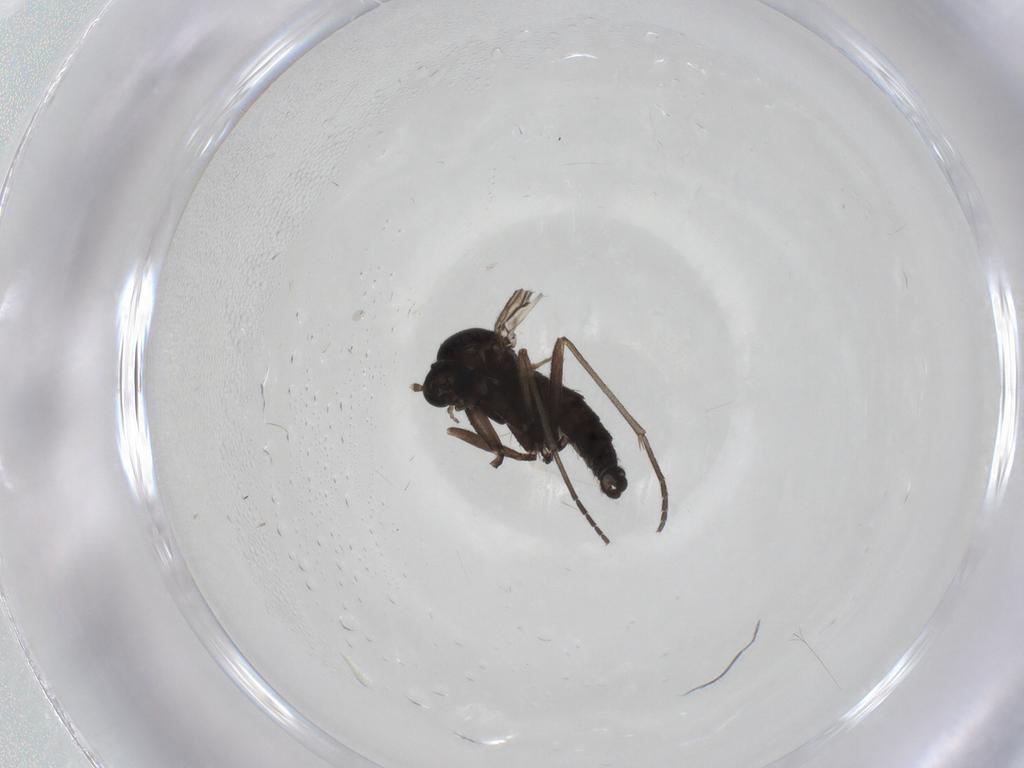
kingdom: Animalia
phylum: Arthropoda
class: Insecta
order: Diptera
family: Sciaridae
